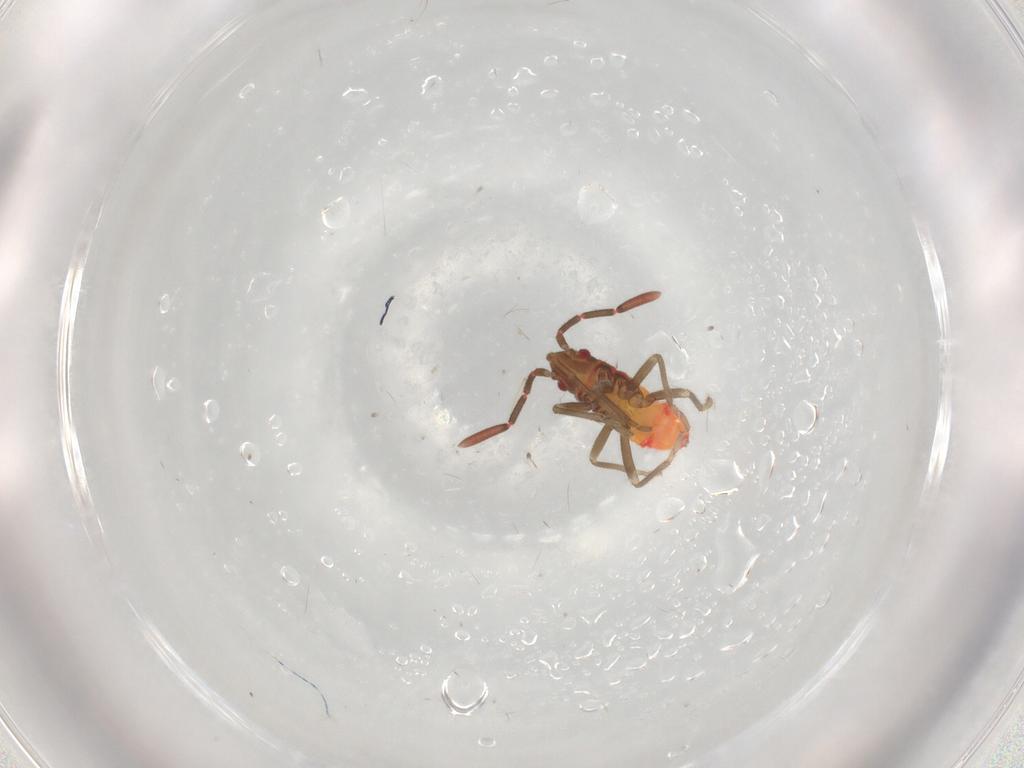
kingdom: Animalia
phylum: Arthropoda
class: Insecta
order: Hemiptera
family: Rhyparochromidae
